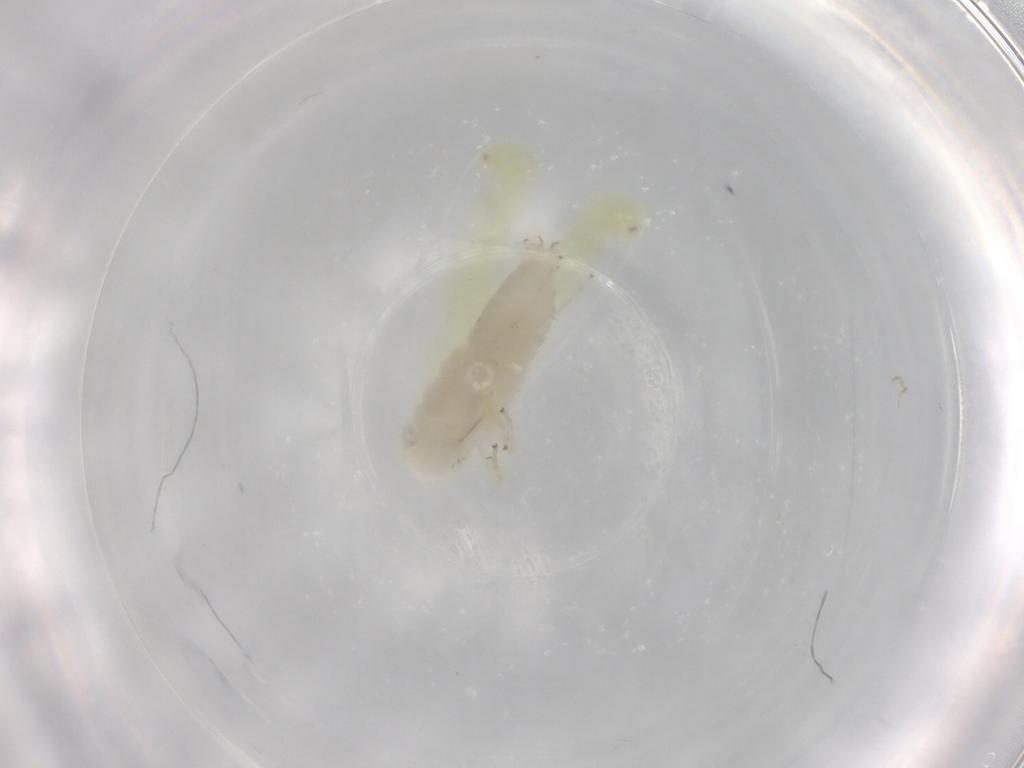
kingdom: Animalia
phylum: Arthropoda
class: Insecta
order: Hemiptera
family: Cicadellidae
